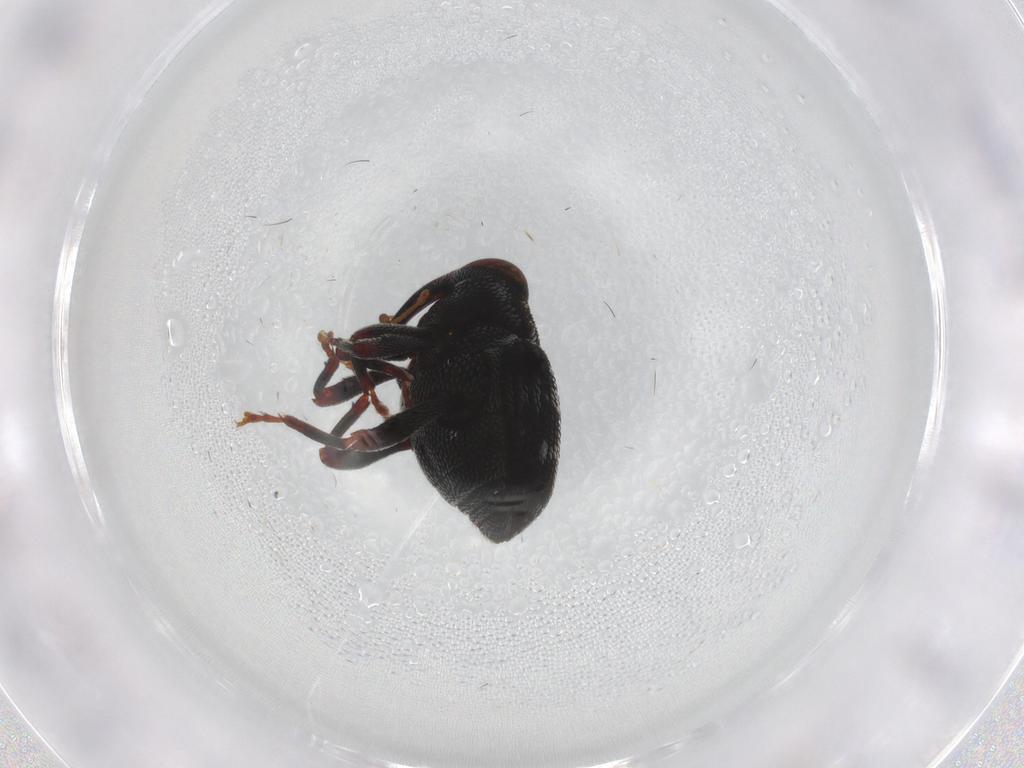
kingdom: Animalia
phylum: Arthropoda
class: Insecta
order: Coleoptera
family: Curculionidae
